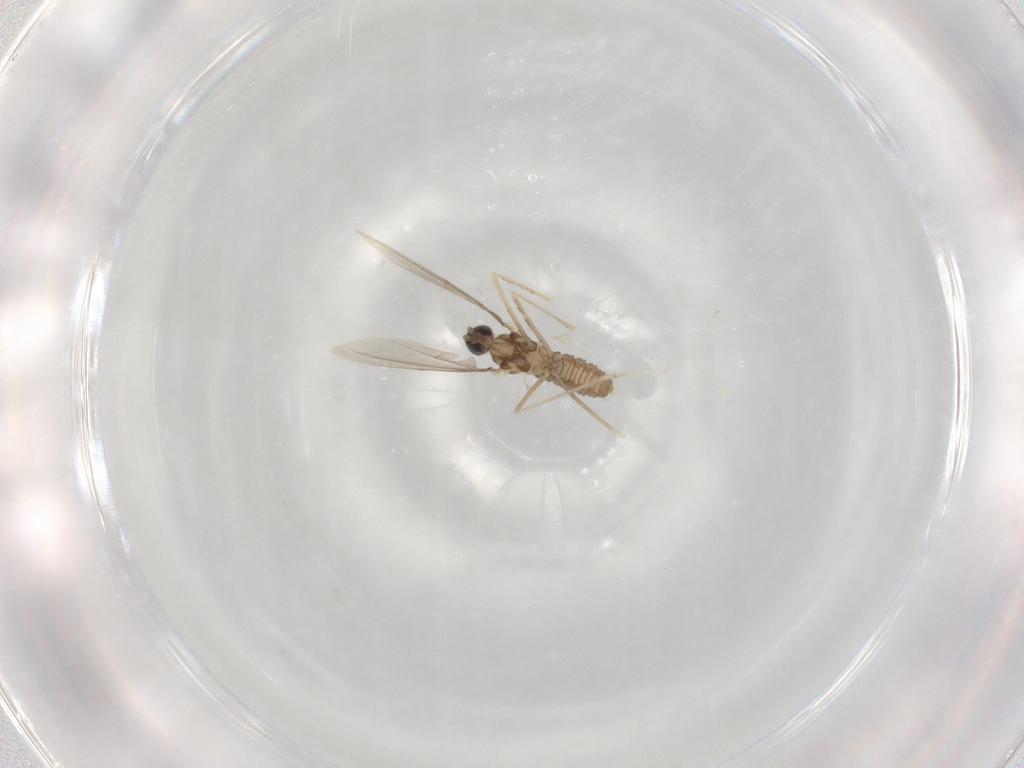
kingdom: Animalia
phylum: Arthropoda
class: Insecta
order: Diptera
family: Cecidomyiidae
